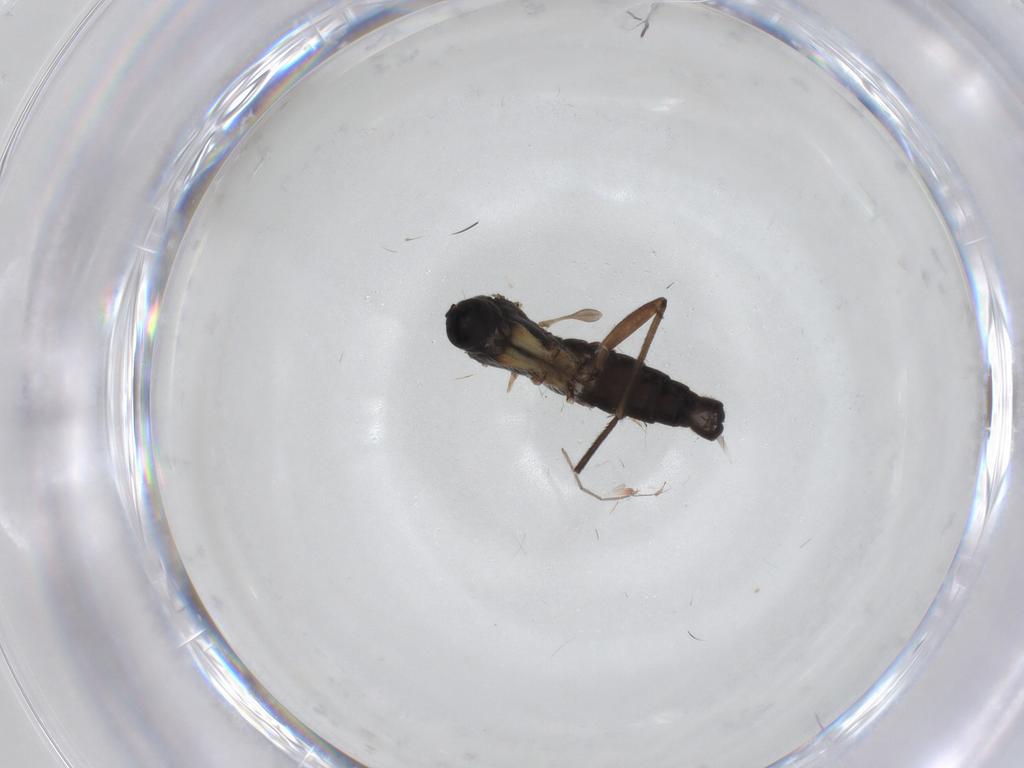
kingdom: Animalia
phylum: Arthropoda
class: Insecta
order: Diptera
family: Sciaridae
